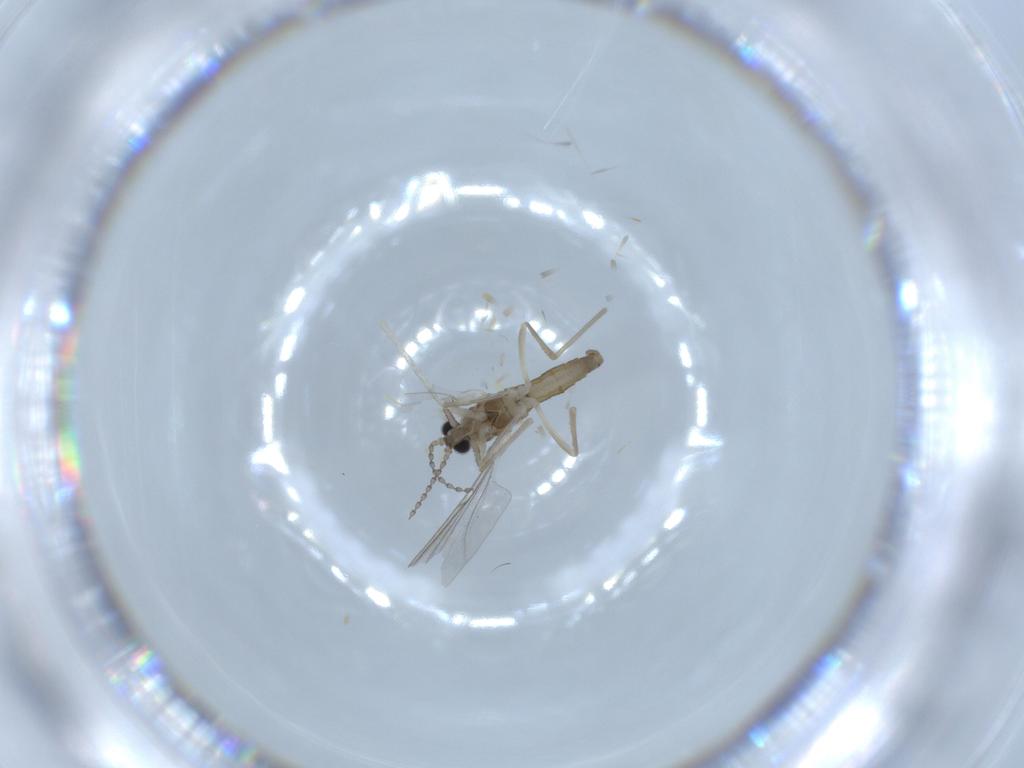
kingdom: Animalia
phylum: Arthropoda
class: Insecta
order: Diptera
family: Cecidomyiidae
